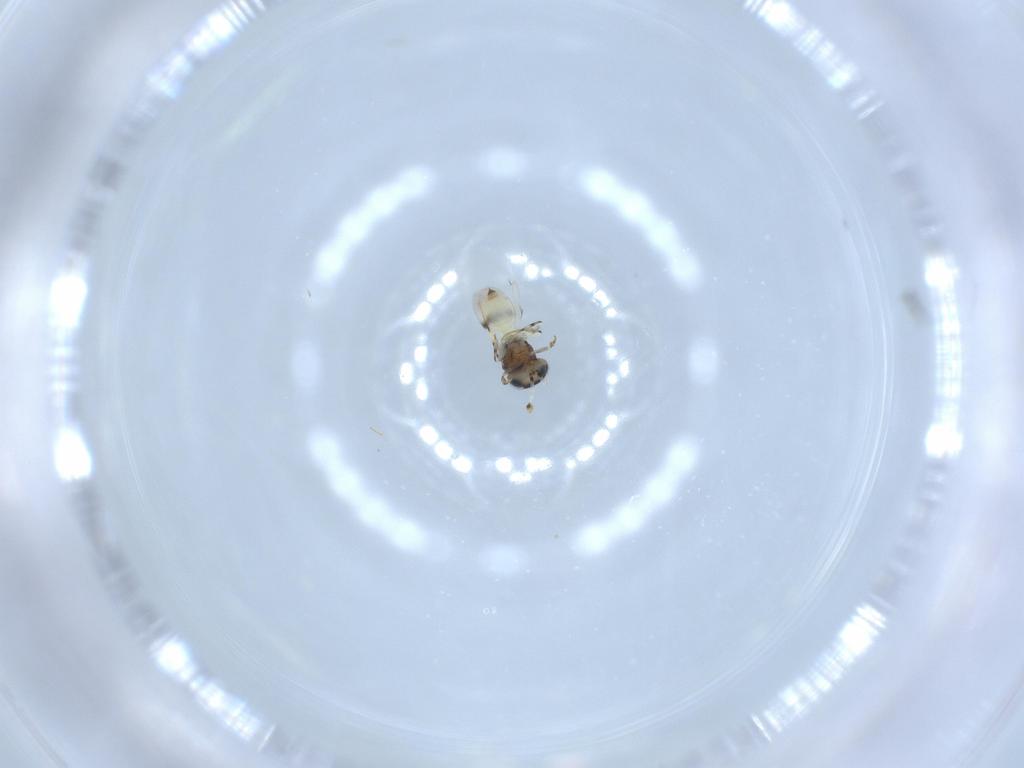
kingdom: Animalia
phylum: Arthropoda
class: Insecta
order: Hymenoptera
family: Scelionidae
